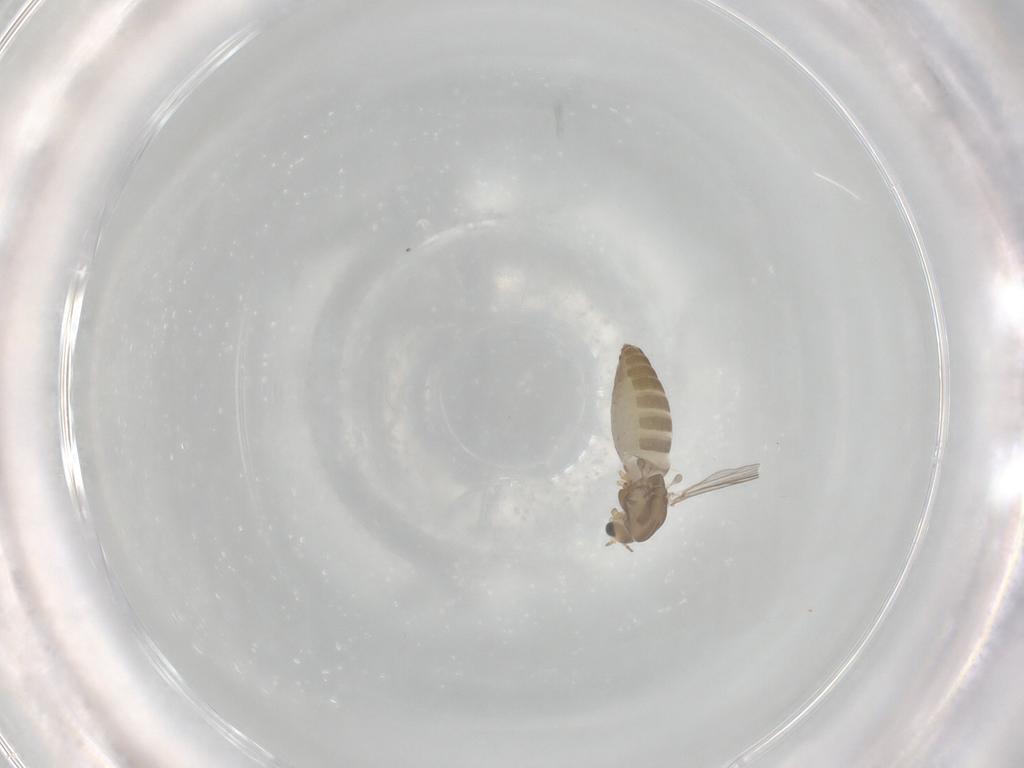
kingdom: Animalia
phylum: Arthropoda
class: Insecta
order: Diptera
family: Chironomidae
